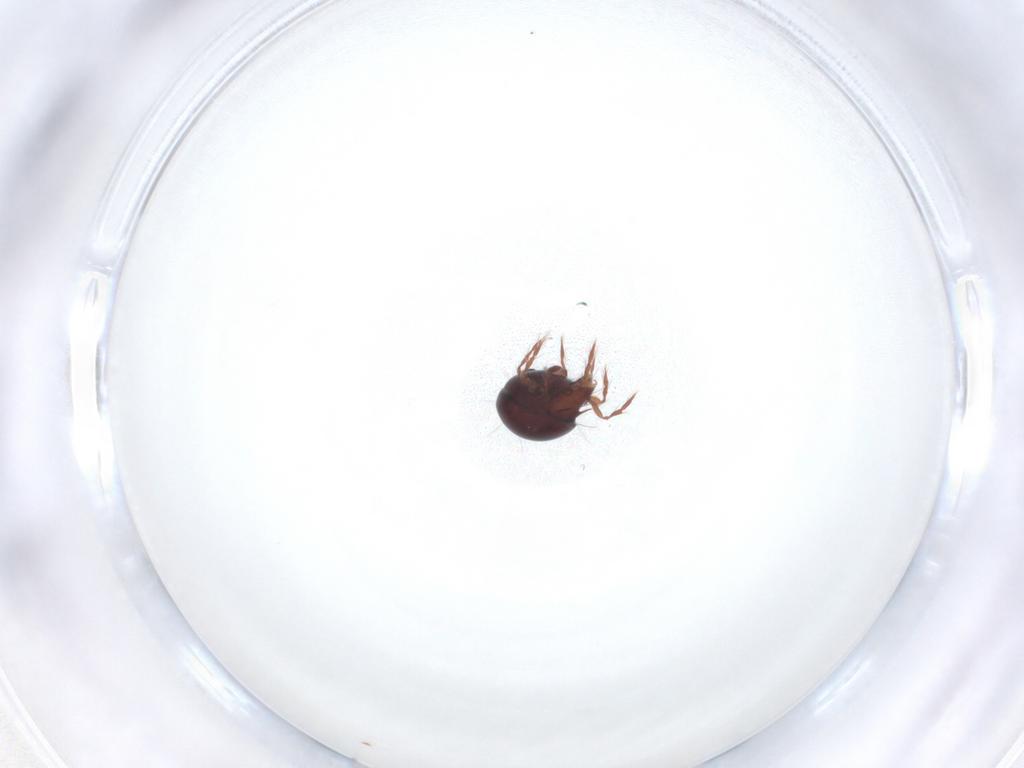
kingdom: Animalia
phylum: Arthropoda
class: Arachnida
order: Sarcoptiformes
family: Ceratoppiidae
